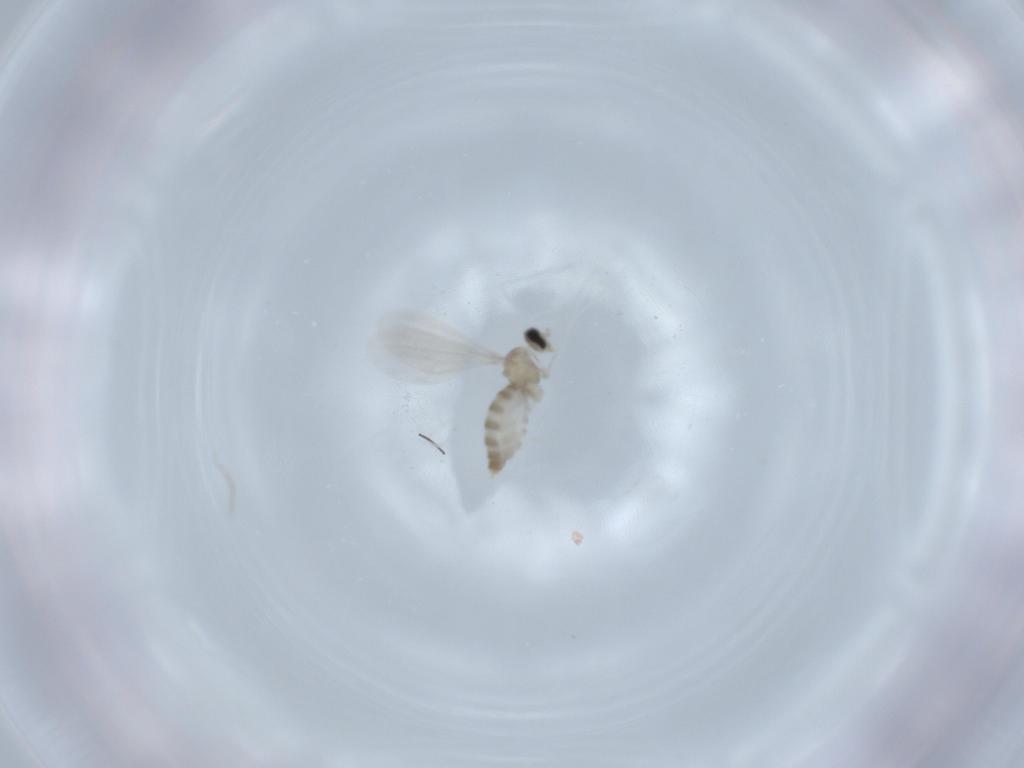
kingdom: Animalia
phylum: Arthropoda
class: Insecta
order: Diptera
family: Cecidomyiidae
